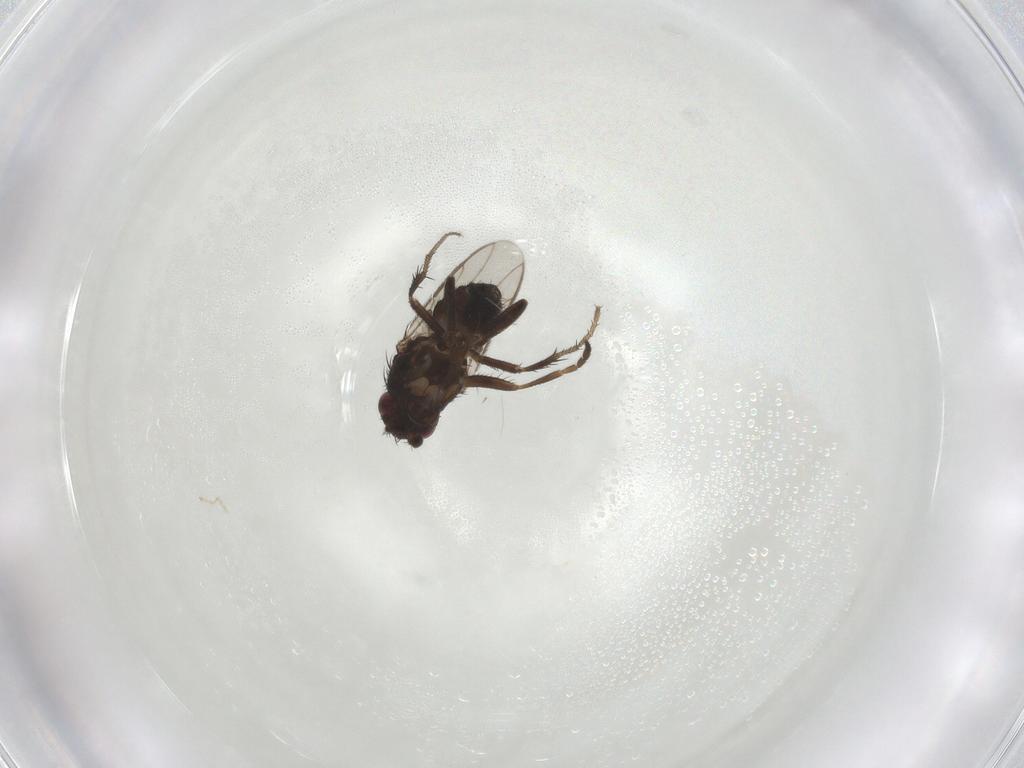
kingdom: Animalia
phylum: Arthropoda
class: Insecta
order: Diptera
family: Sphaeroceridae
